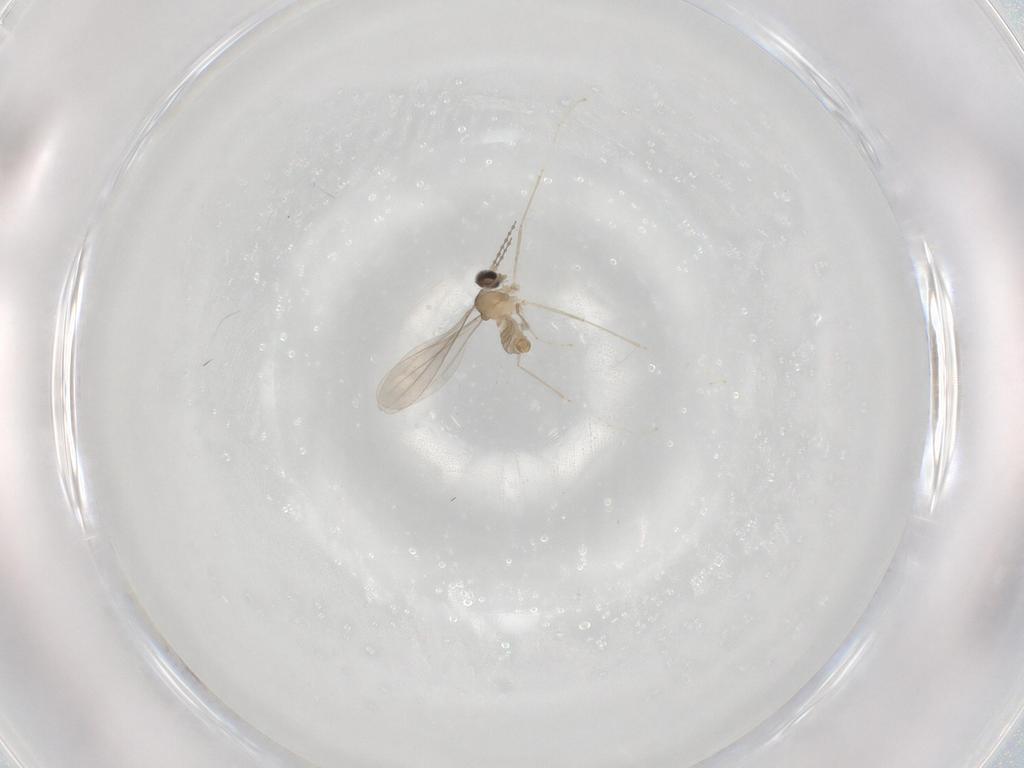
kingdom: Animalia
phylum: Arthropoda
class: Insecta
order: Diptera
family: Cecidomyiidae
